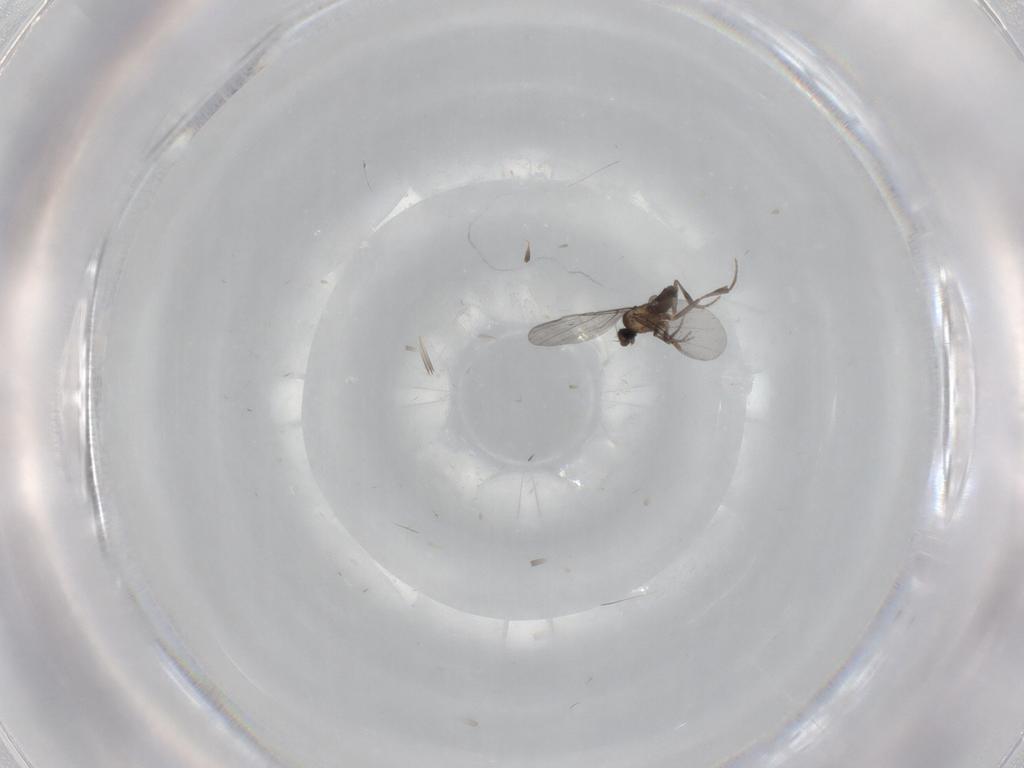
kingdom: Animalia
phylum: Arthropoda
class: Insecta
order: Diptera
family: Phoridae
